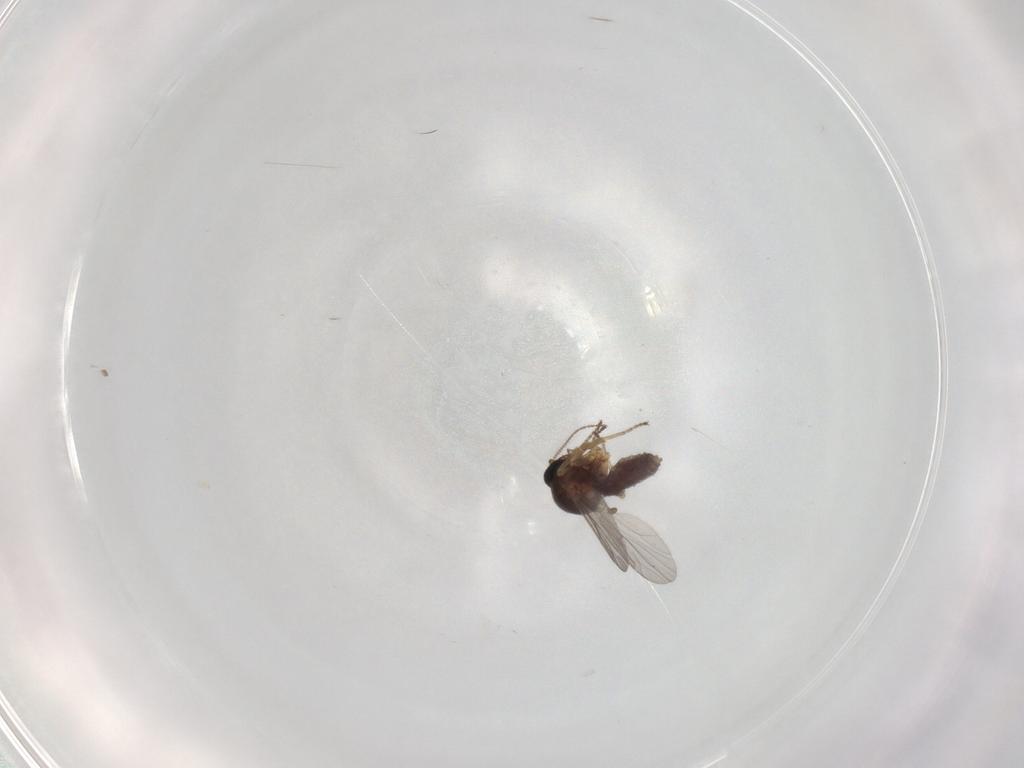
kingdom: Animalia
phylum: Arthropoda
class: Insecta
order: Diptera
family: Ceratopogonidae
